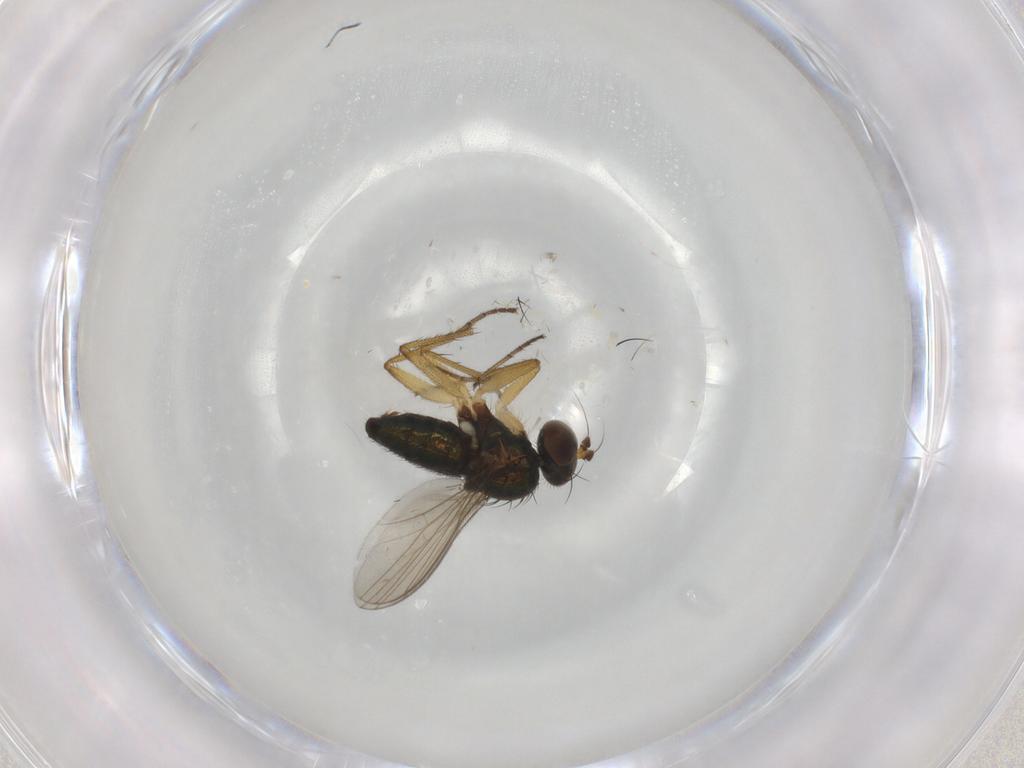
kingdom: Animalia
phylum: Arthropoda
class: Insecta
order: Diptera
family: Dolichopodidae
